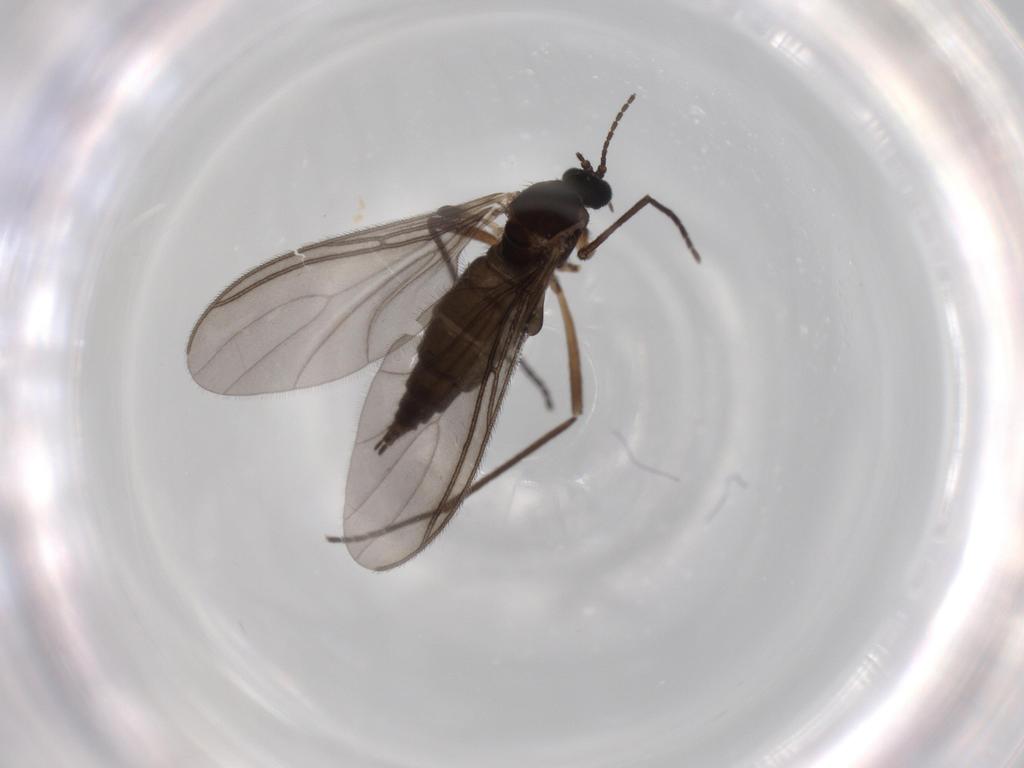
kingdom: Animalia
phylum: Arthropoda
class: Insecta
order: Diptera
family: Sciaridae
